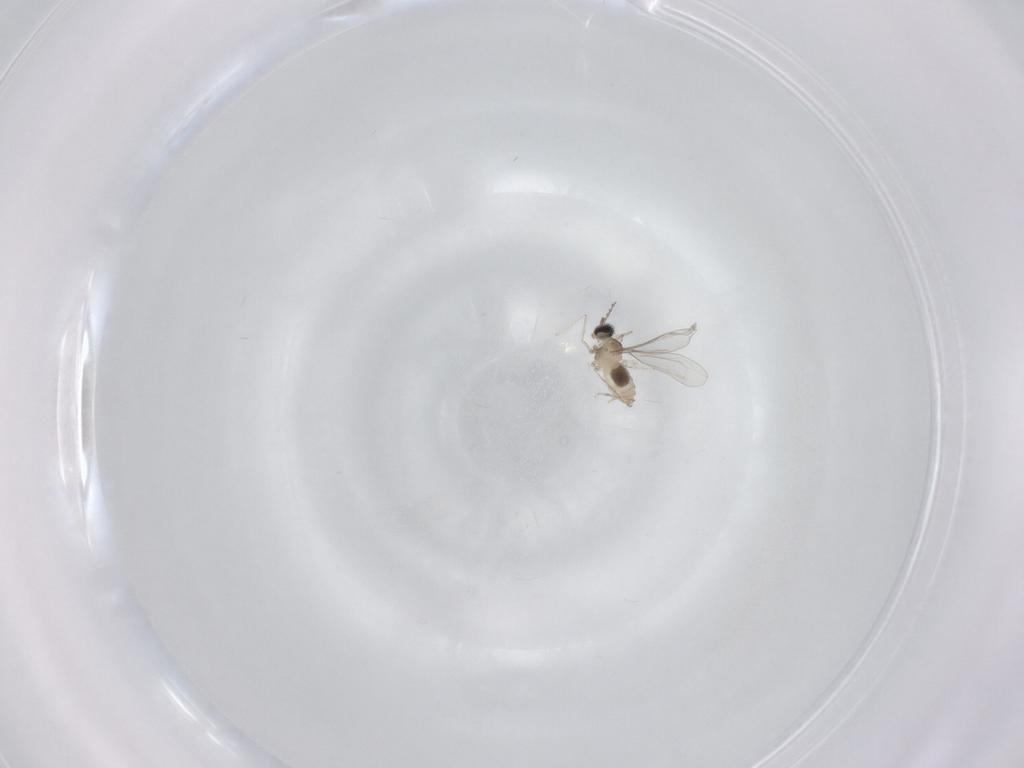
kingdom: Animalia
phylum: Arthropoda
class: Insecta
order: Diptera
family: Cecidomyiidae
